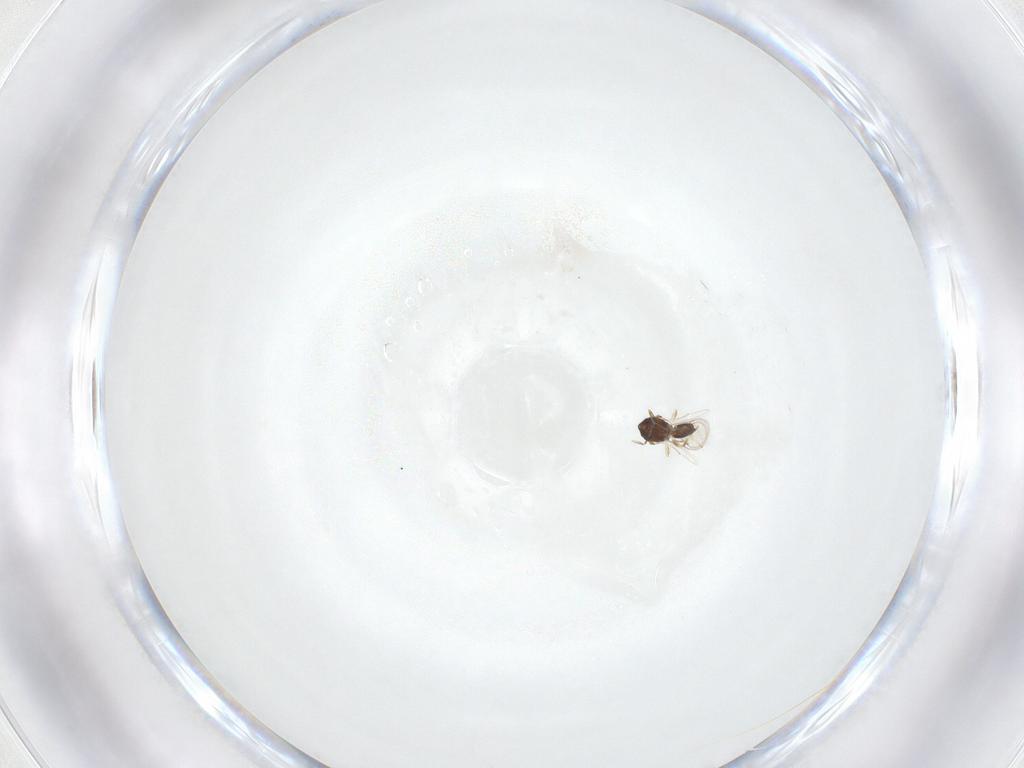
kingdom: Animalia
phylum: Arthropoda
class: Insecta
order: Hymenoptera
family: Eulophidae
